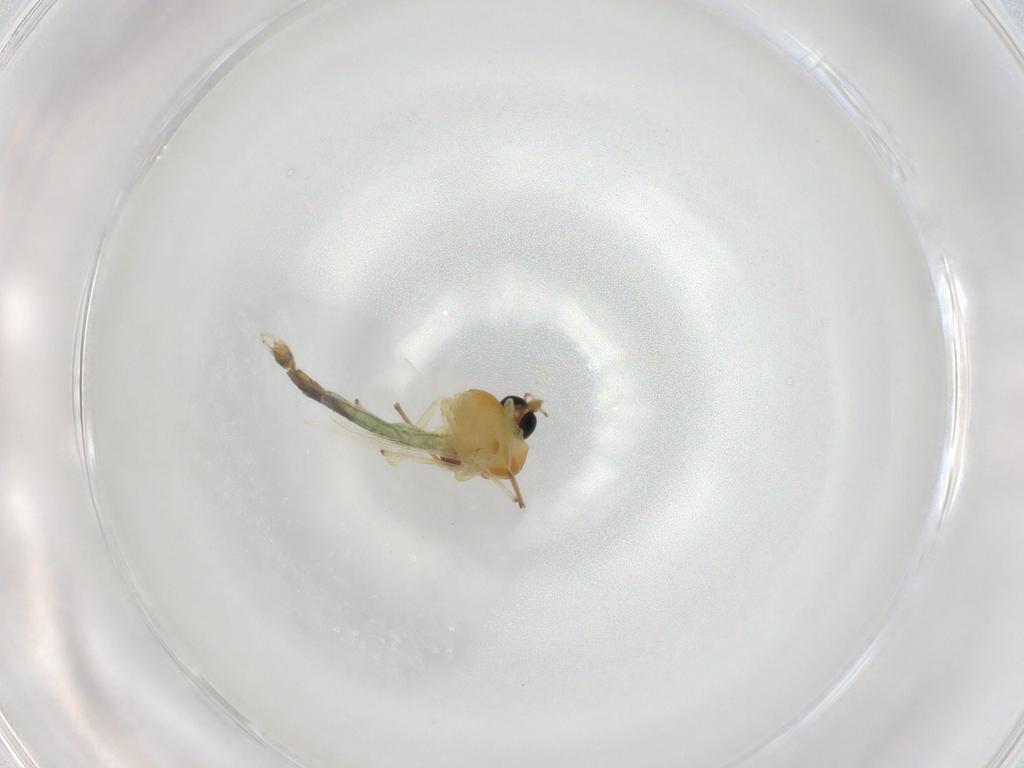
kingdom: Animalia
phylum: Arthropoda
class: Insecta
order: Diptera
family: Chironomidae
